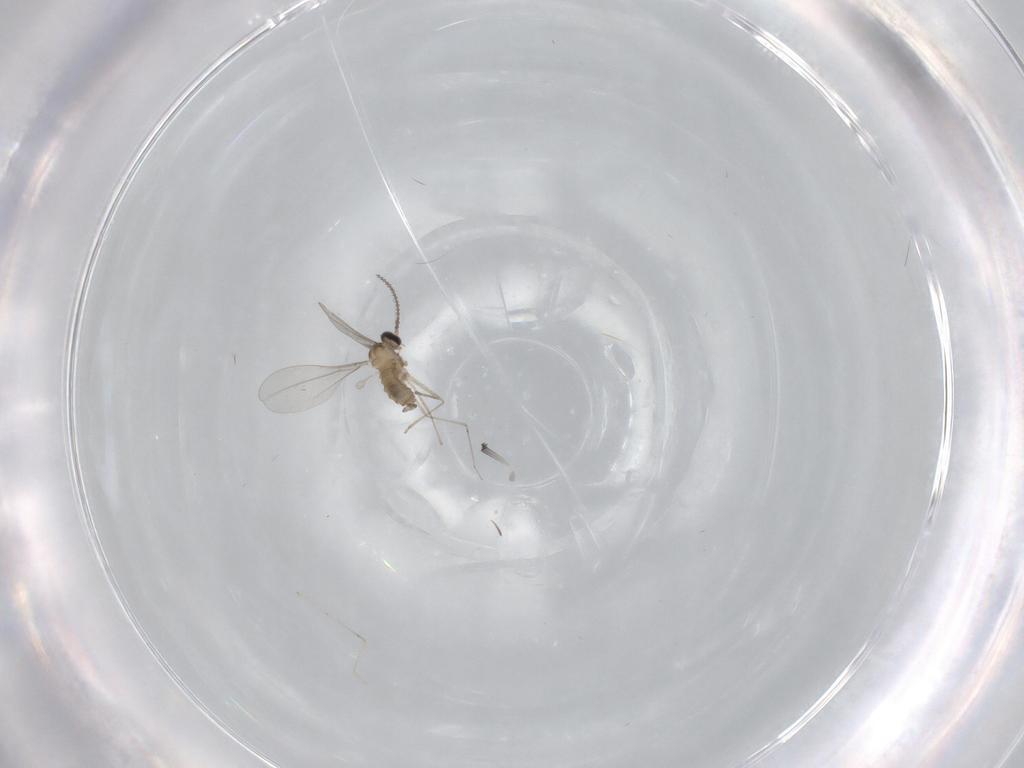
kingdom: Animalia
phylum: Arthropoda
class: Insecta
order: Diptera
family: Cecidomyiidae
